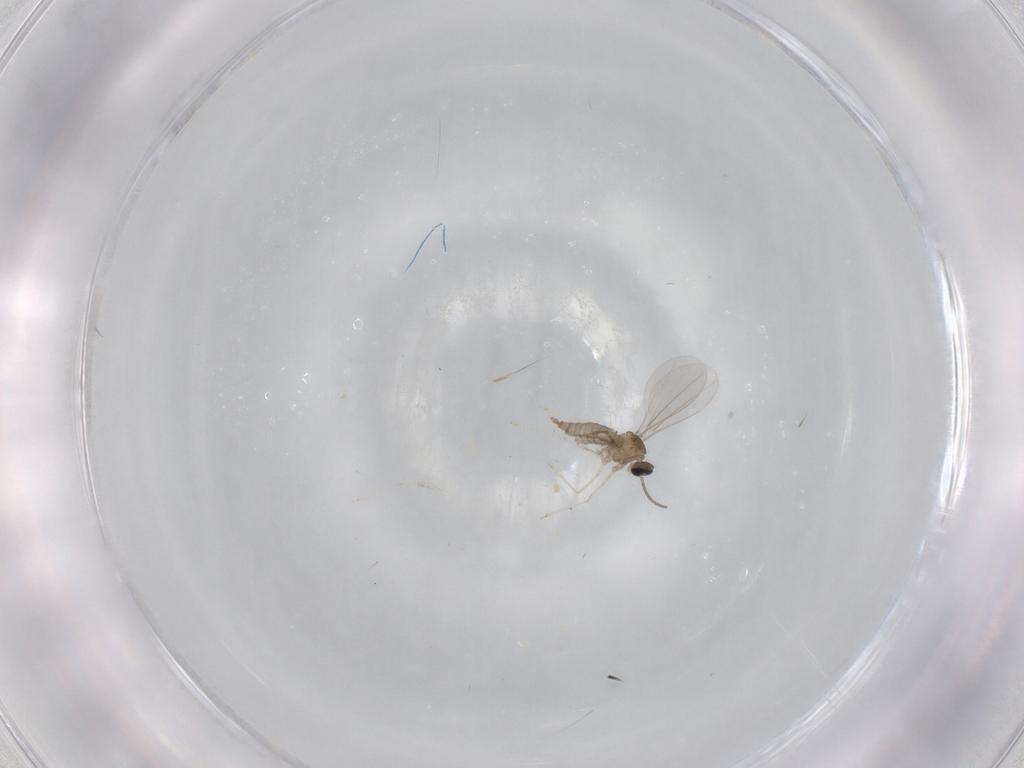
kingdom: Animalia
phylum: Arthropoda
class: Insecta
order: Diptera
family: Cecidomyiidae
